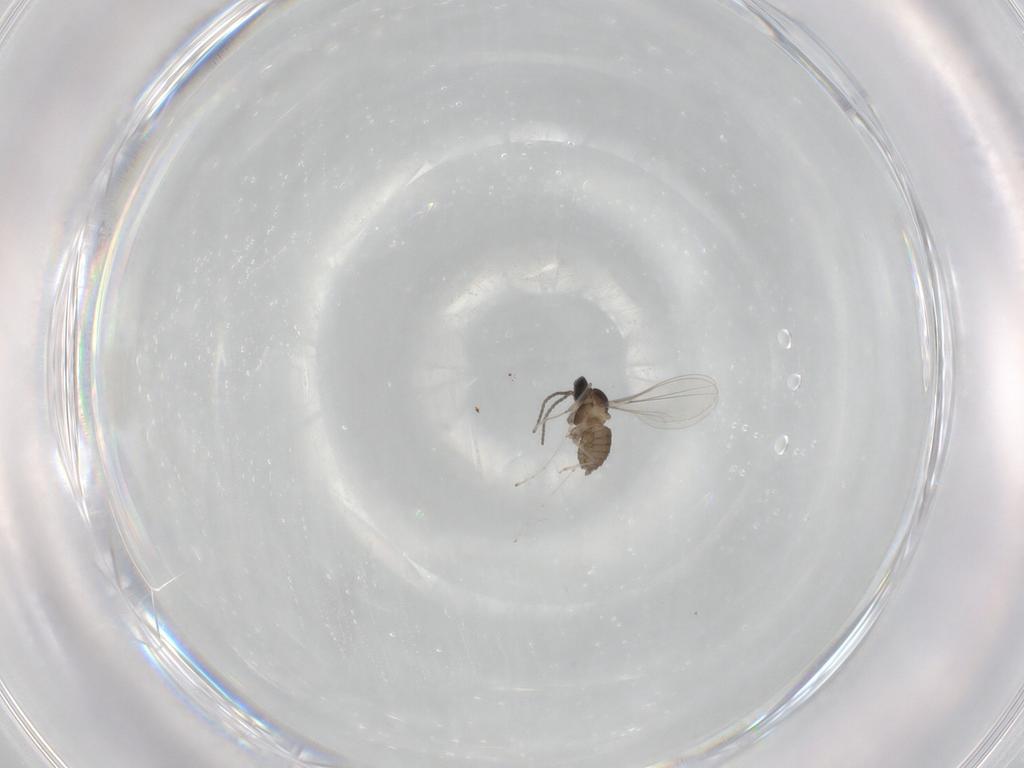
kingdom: Animalia
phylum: Arthropoda
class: Insecta
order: Diptera
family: Cecidomyiidae
